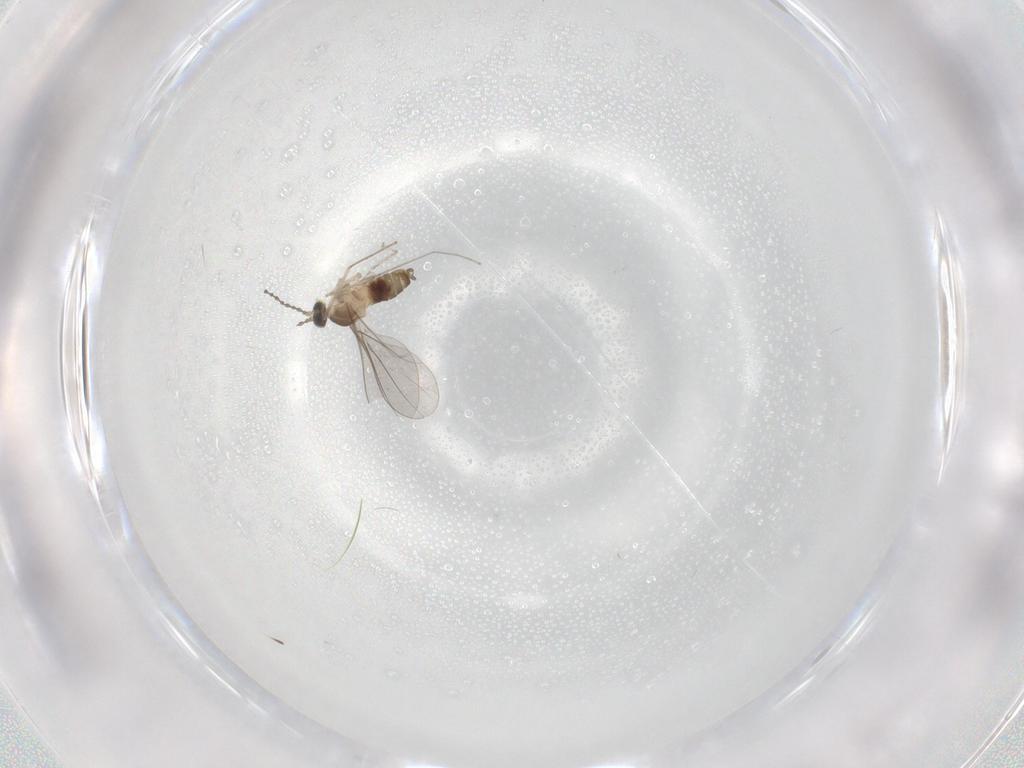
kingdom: Animalia
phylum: Arthropoda
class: Insecta
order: Diptera
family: Cecidomyiidae
